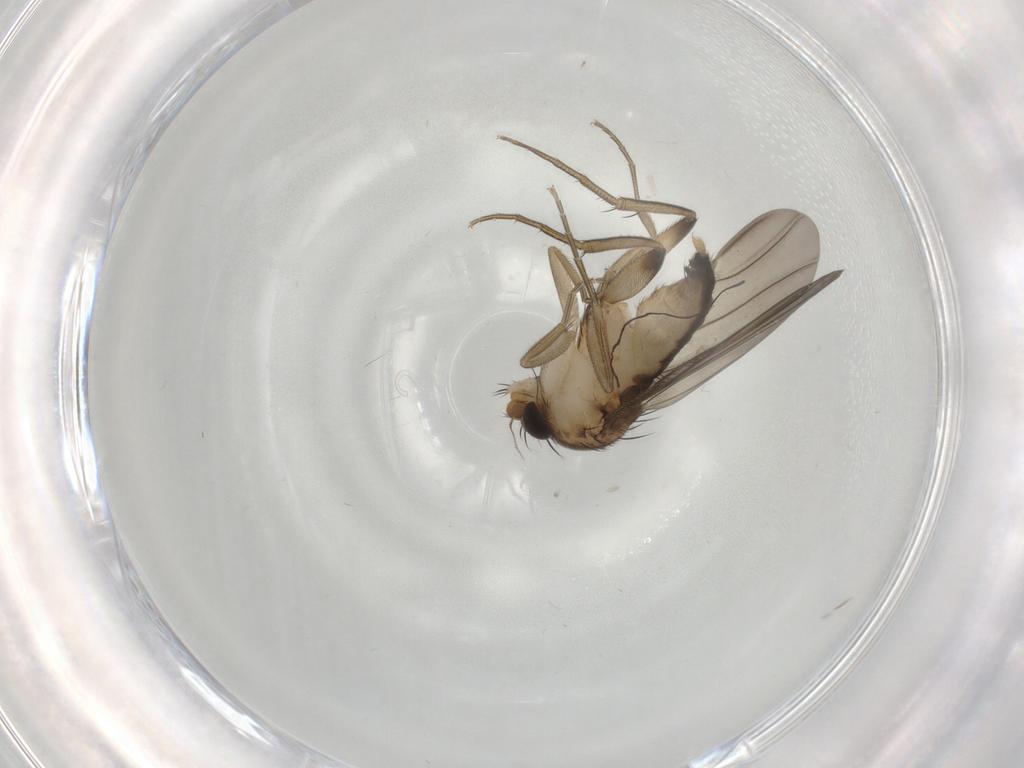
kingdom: Animalia
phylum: Arthropoda
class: Insecta
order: Diptera
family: Phoridae
